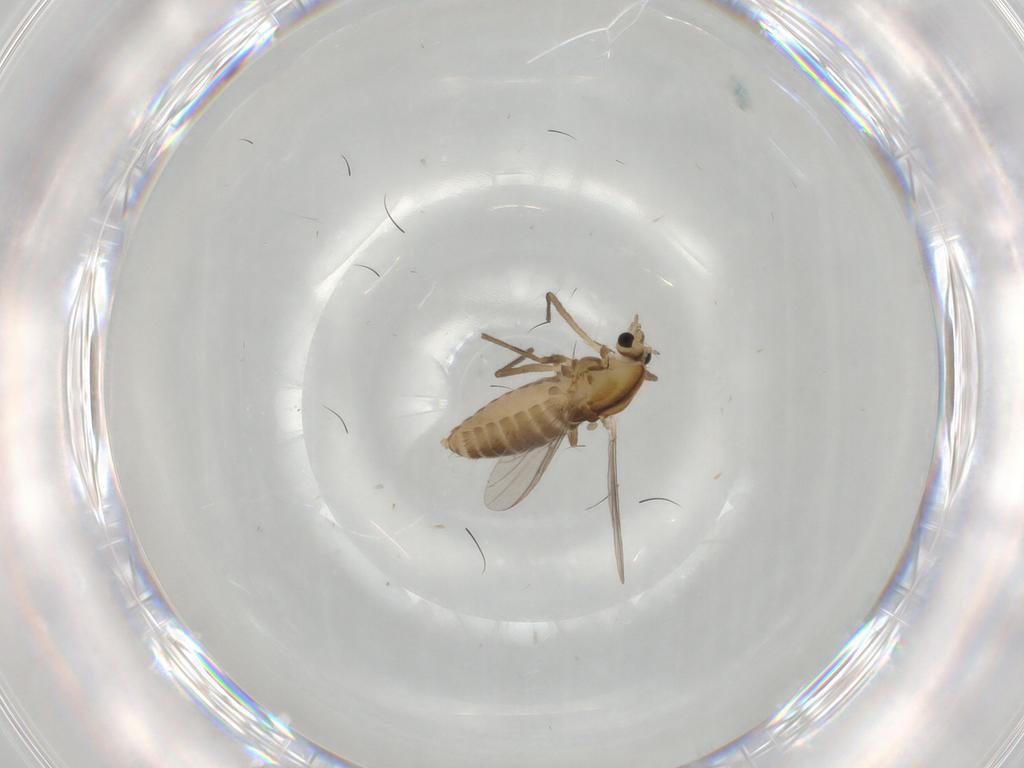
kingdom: Animalia
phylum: Arthropoda
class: Insecta
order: Diptera
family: Chironomidae
